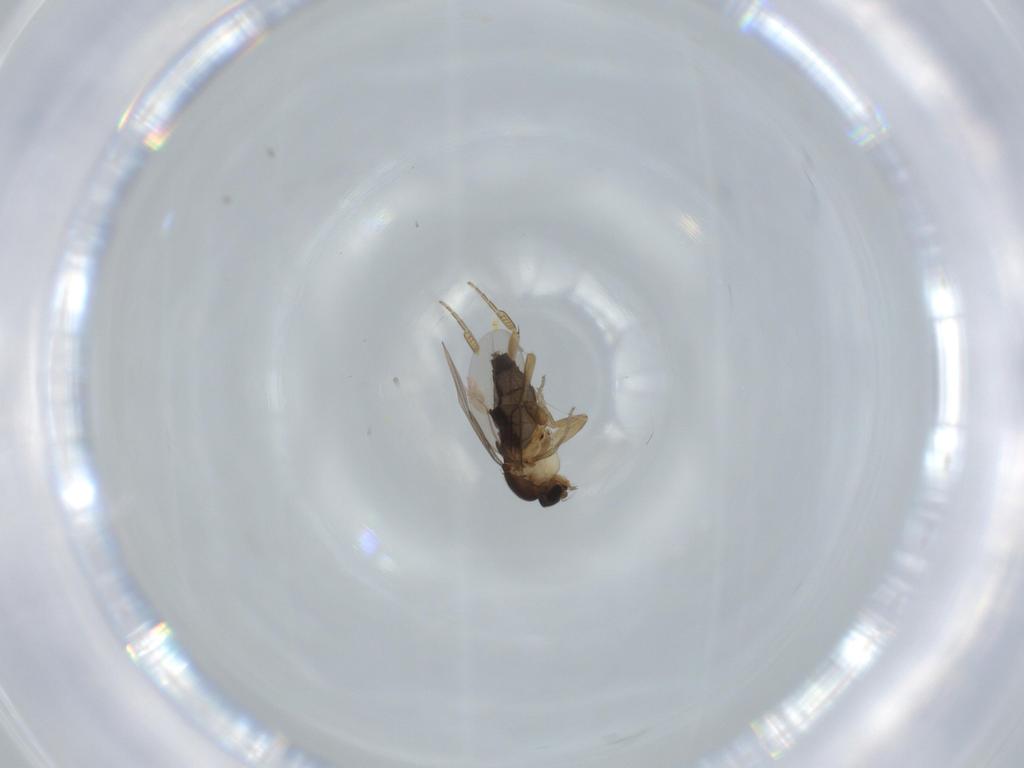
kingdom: Animalia
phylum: Arthropoda
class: Insecta
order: Diptera
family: Phoridae
